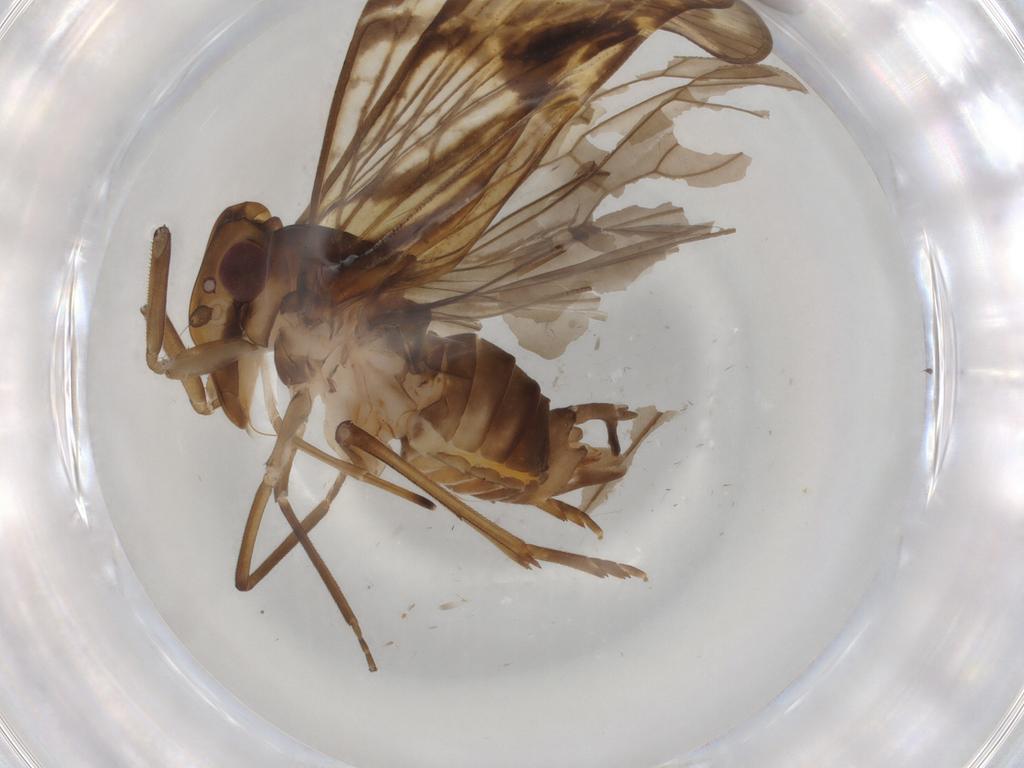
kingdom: Animalia
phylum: Arthropoda
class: Insecta
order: Hemiptera
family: Cixiidae
